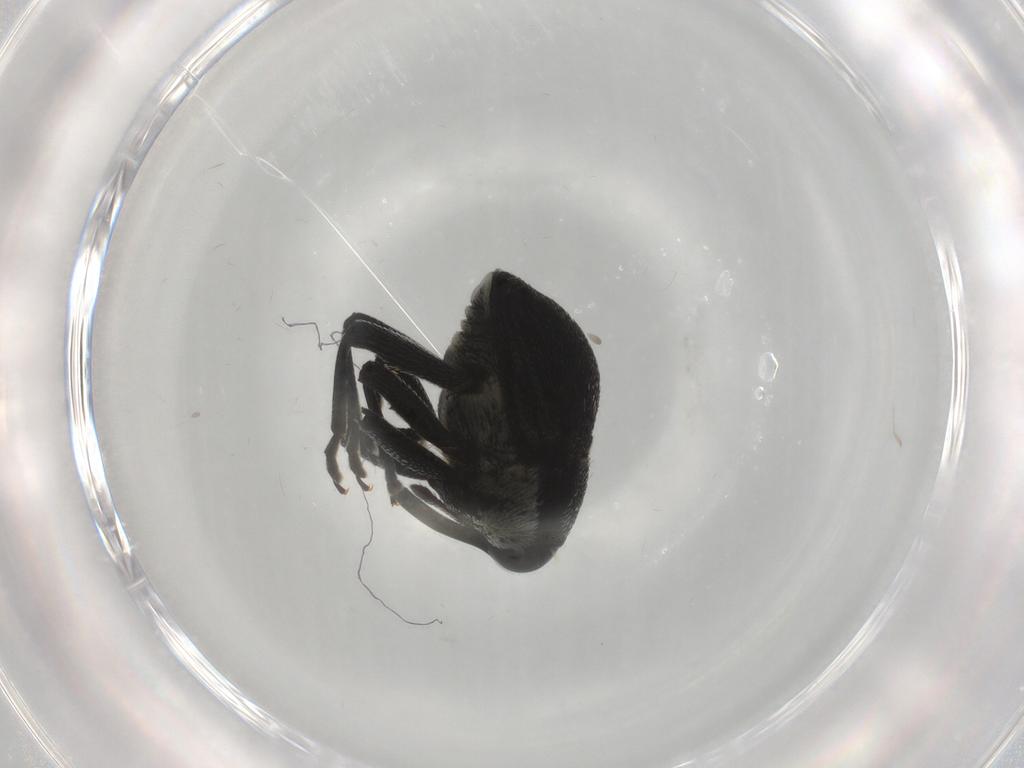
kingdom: Animalia
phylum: Arthropoda
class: Insecta
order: Coleoptera
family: Curculionidae
